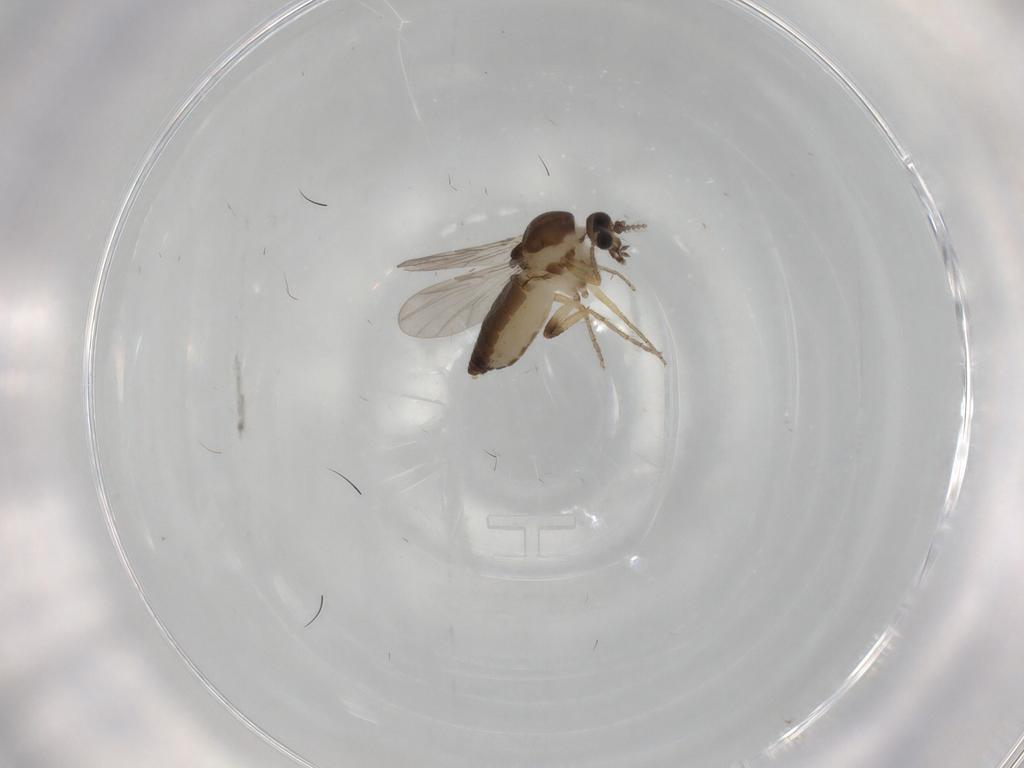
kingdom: Animalia
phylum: Arthropoda
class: Insecta
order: Diptera
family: Ceratopogonidae
